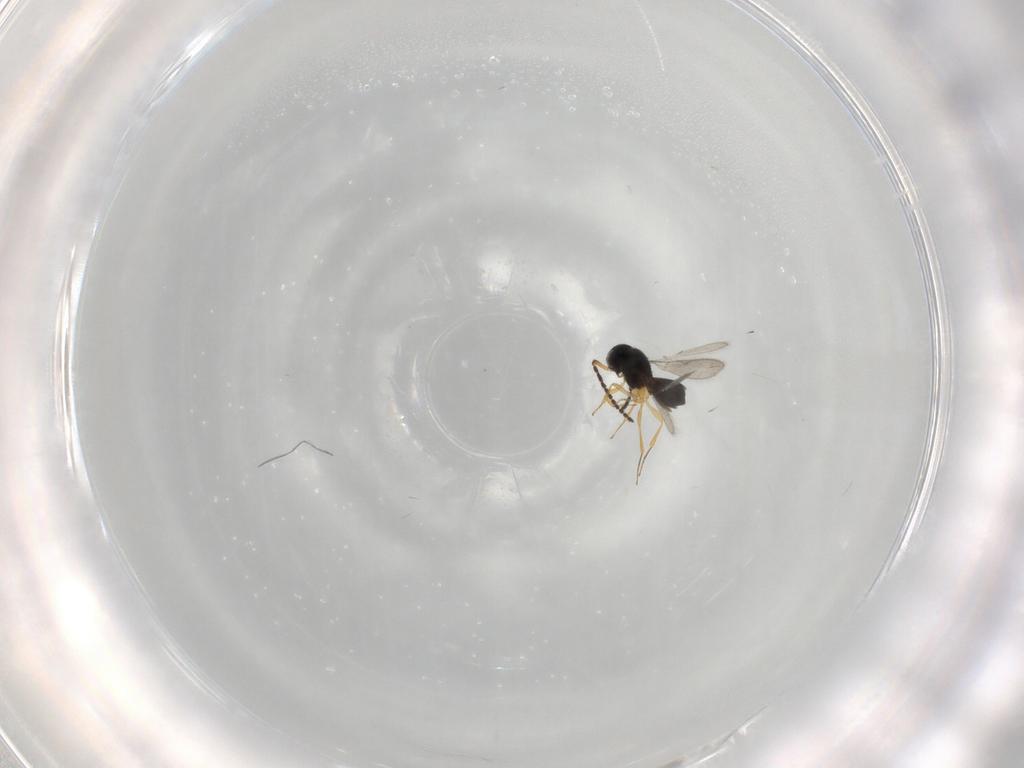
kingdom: Animalia
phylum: Arthropoda
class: Insecta
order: Hymenoptera
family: Scelionidae
